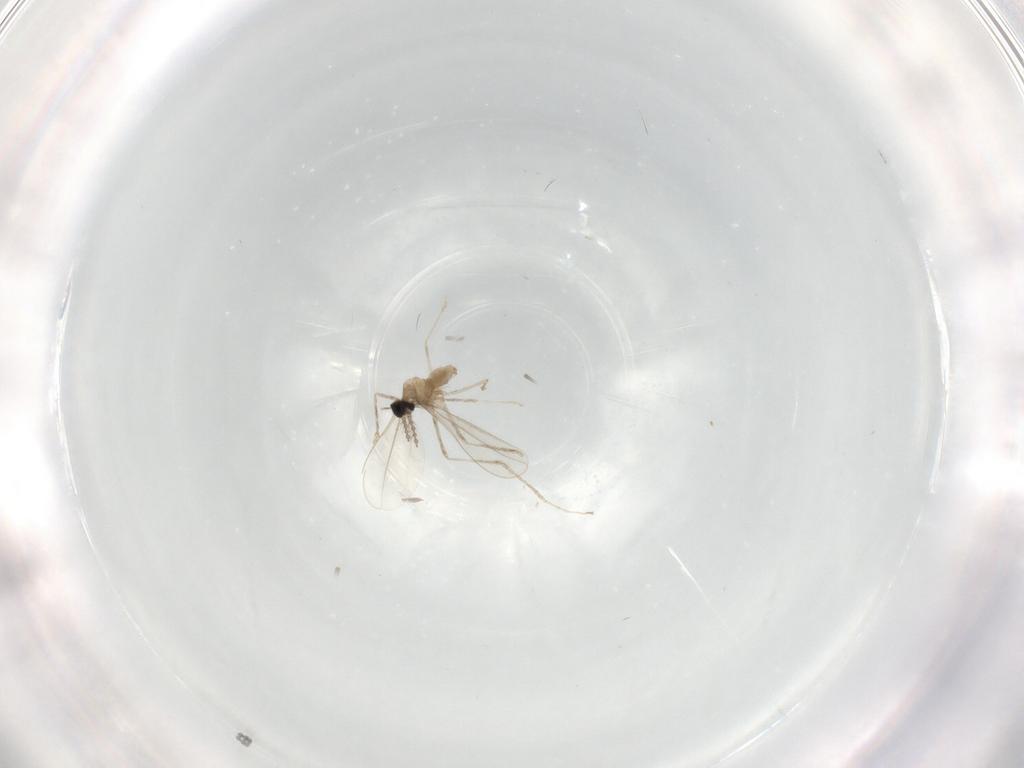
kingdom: Animalia
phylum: Arthropoda
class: Insecta
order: Diptera
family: Cecidomyiidae
